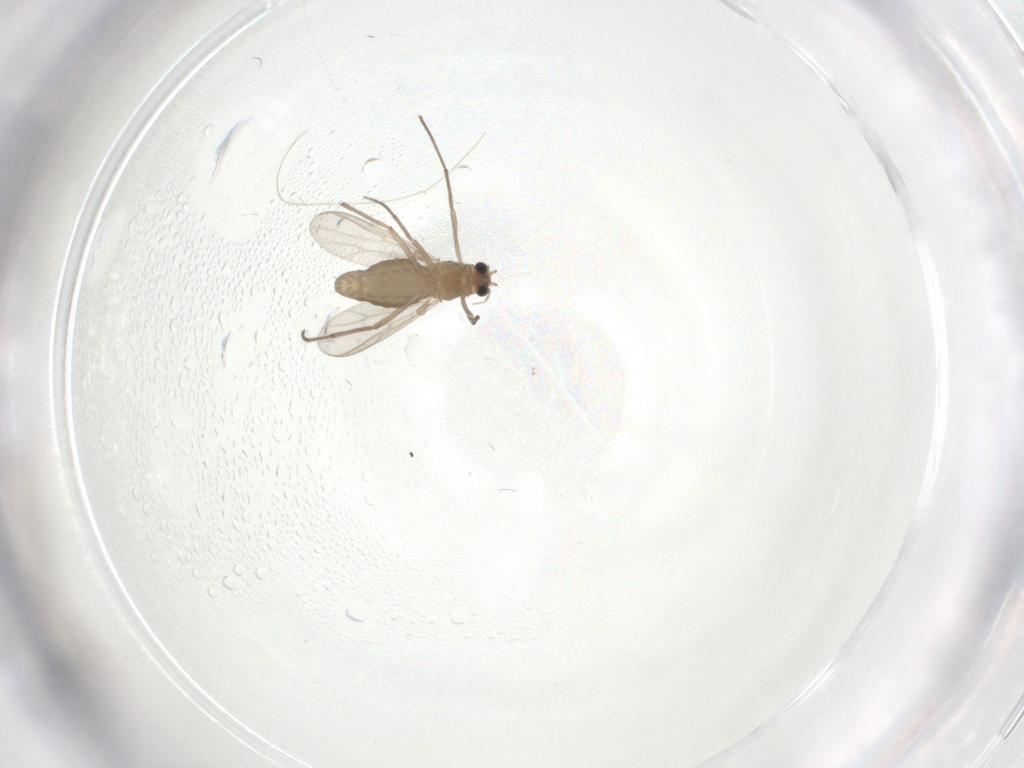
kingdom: Animalia
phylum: Arthropoda
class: Insecta
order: Diptera
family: Chironomidae
